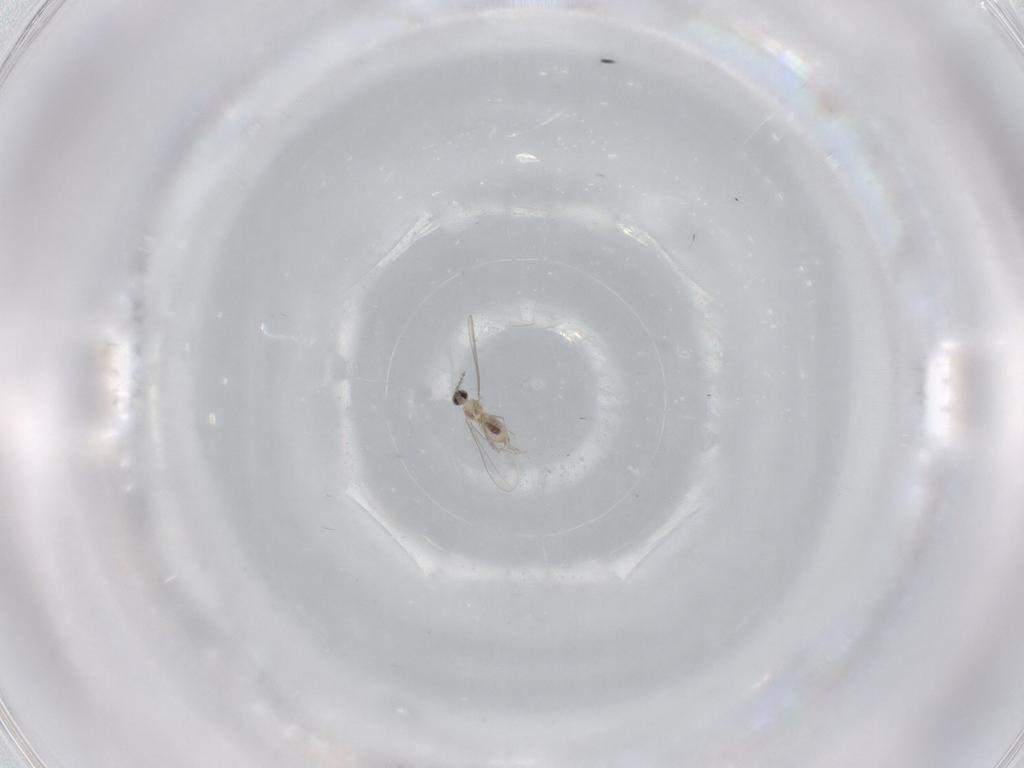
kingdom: Animalia
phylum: Arthropoda
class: Insecta
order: Diptera
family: Cecidomyiidae
